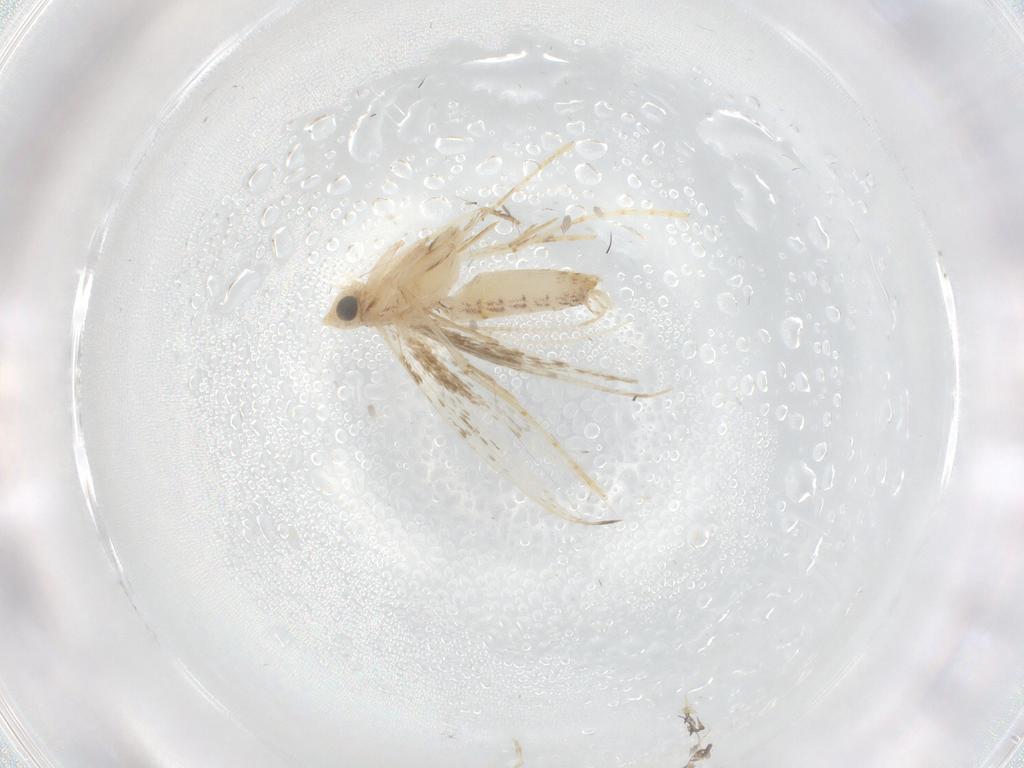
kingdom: Animalia
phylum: Arthropoda
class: Insecta
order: Lepidoptera
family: Lyonetiidae
